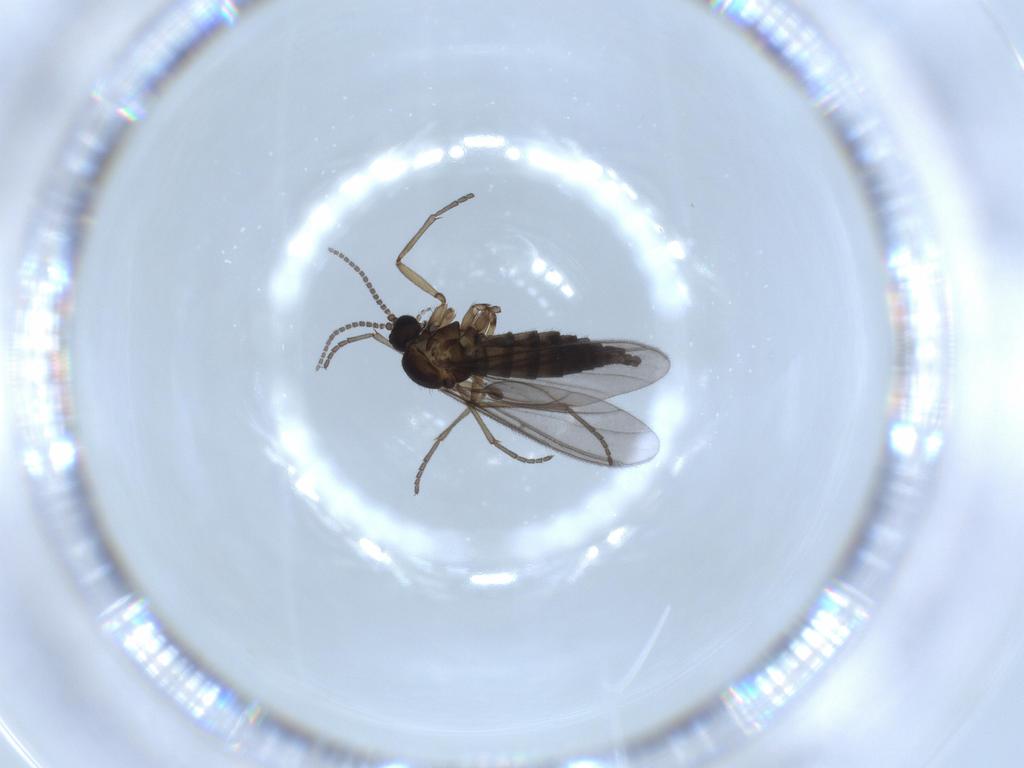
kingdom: Animalia
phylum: Arthropoda
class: Insecta
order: Diptera
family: Sciaridae
